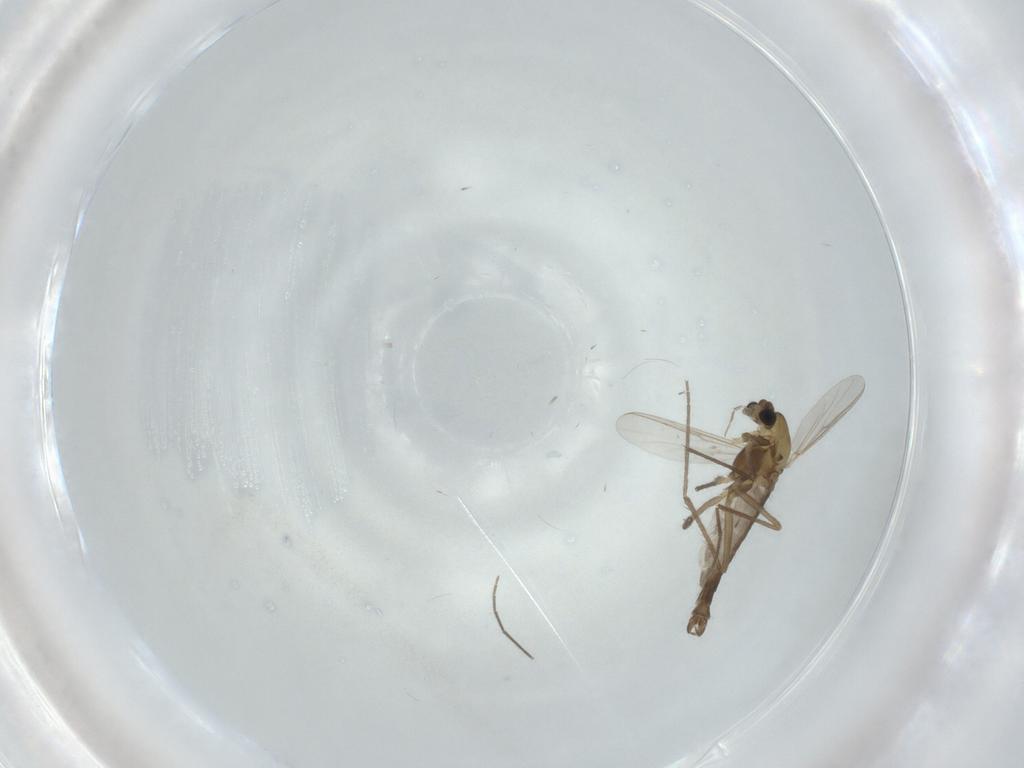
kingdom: Animalia
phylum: Arthropoda
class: Insecta
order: Diptera
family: Chironomidae
